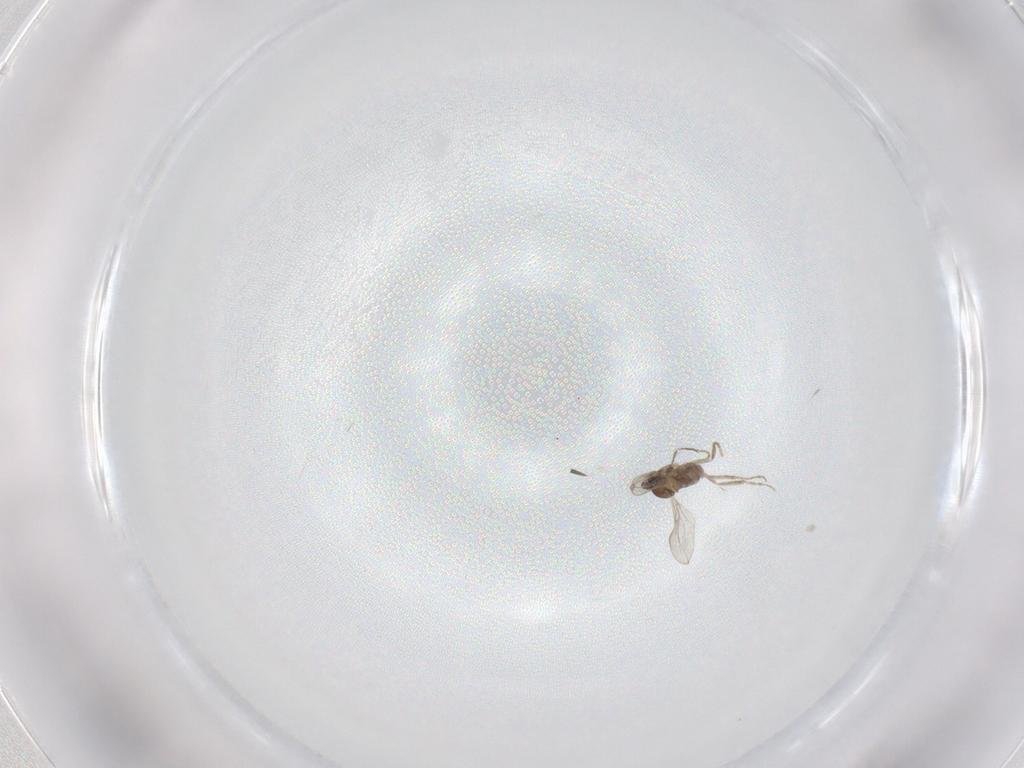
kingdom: Animalia
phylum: Arthropoda
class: Insecta
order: Diptera
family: Sciaridae
